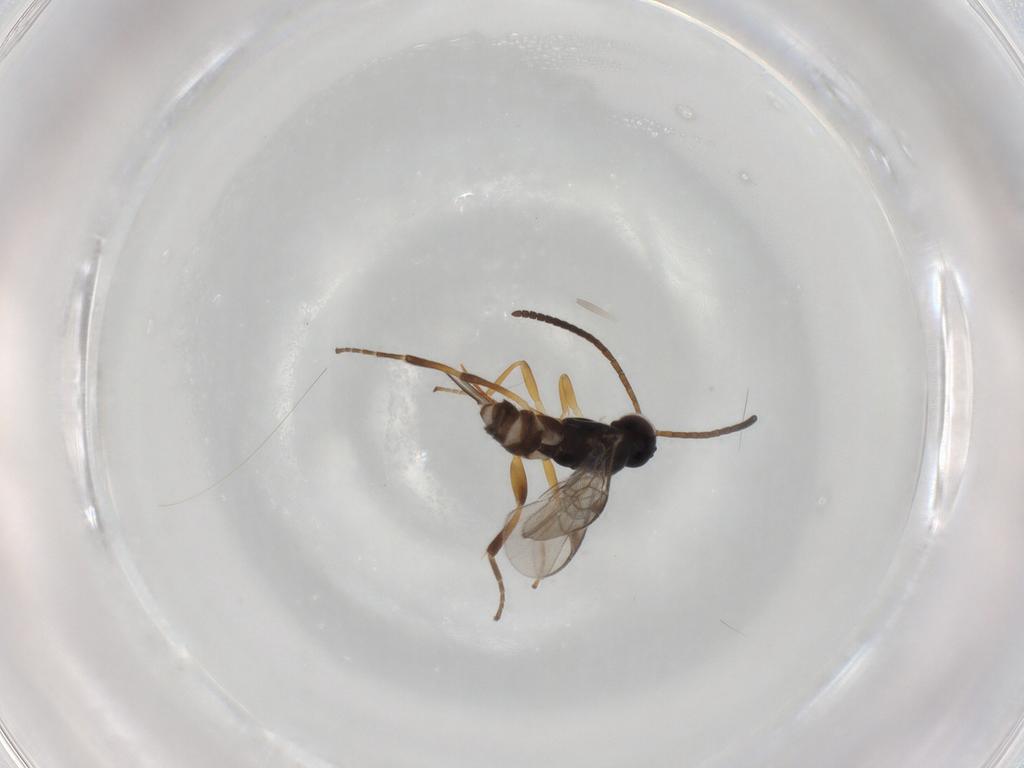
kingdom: Animalia
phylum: Arthropoda
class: Insecta
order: Hymenoptera
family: Braconidae
